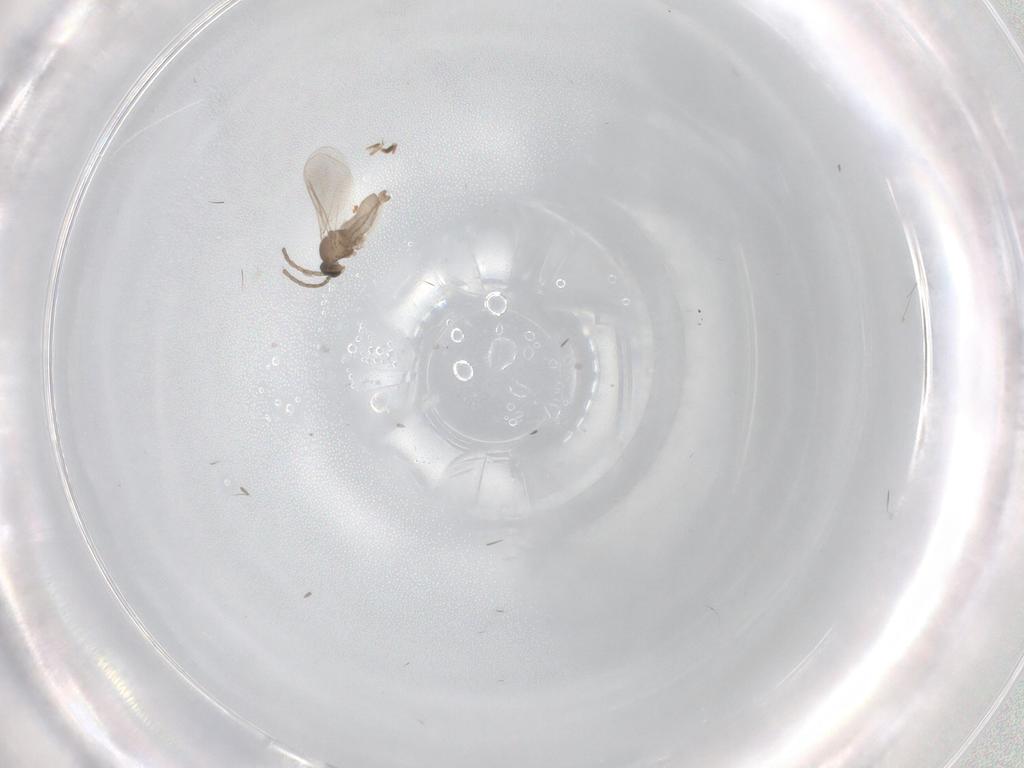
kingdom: Animalia
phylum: Arthropoda
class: Insecta
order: Diptera
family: Cecidomyiidae
